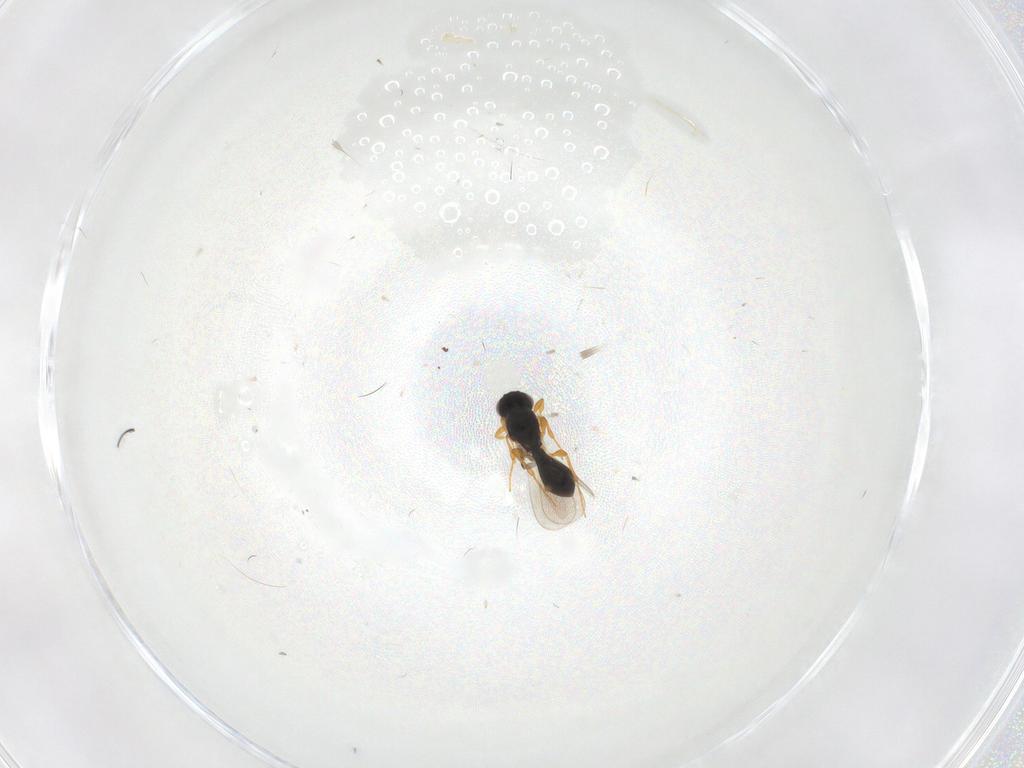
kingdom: Animalia
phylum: Arthropoda
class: Insecta
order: Hymenoptera
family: Platygastridae
